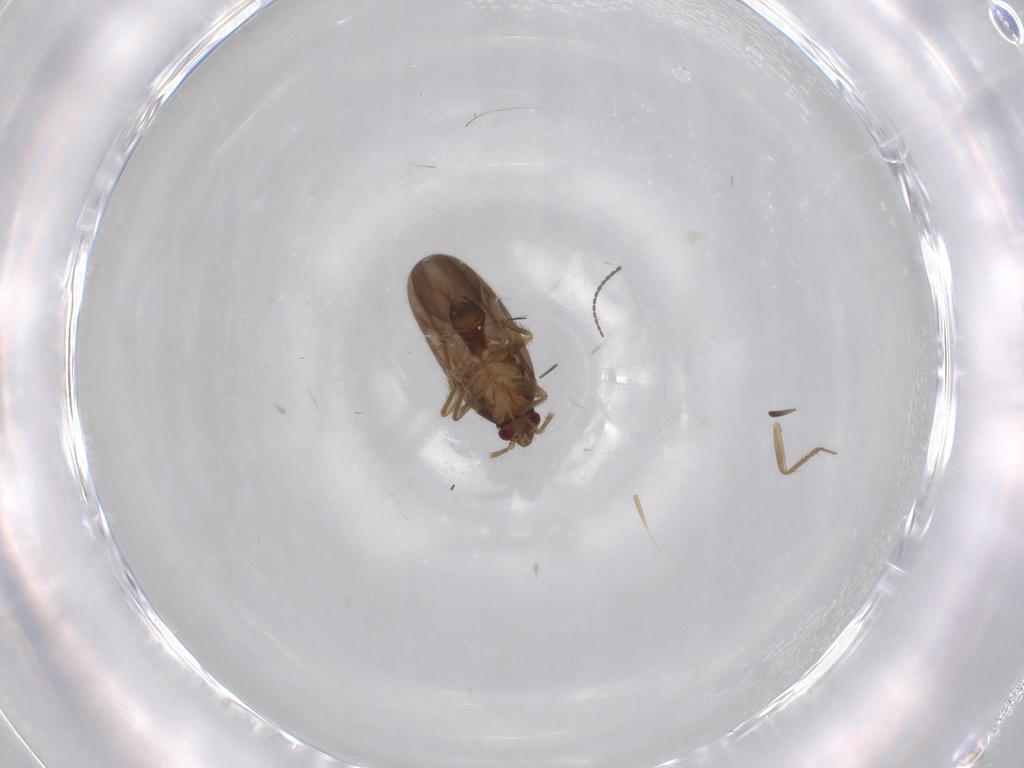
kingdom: Animalia
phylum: Arthropoda
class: Insecta
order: Hemiptera
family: Ceratocombidae
